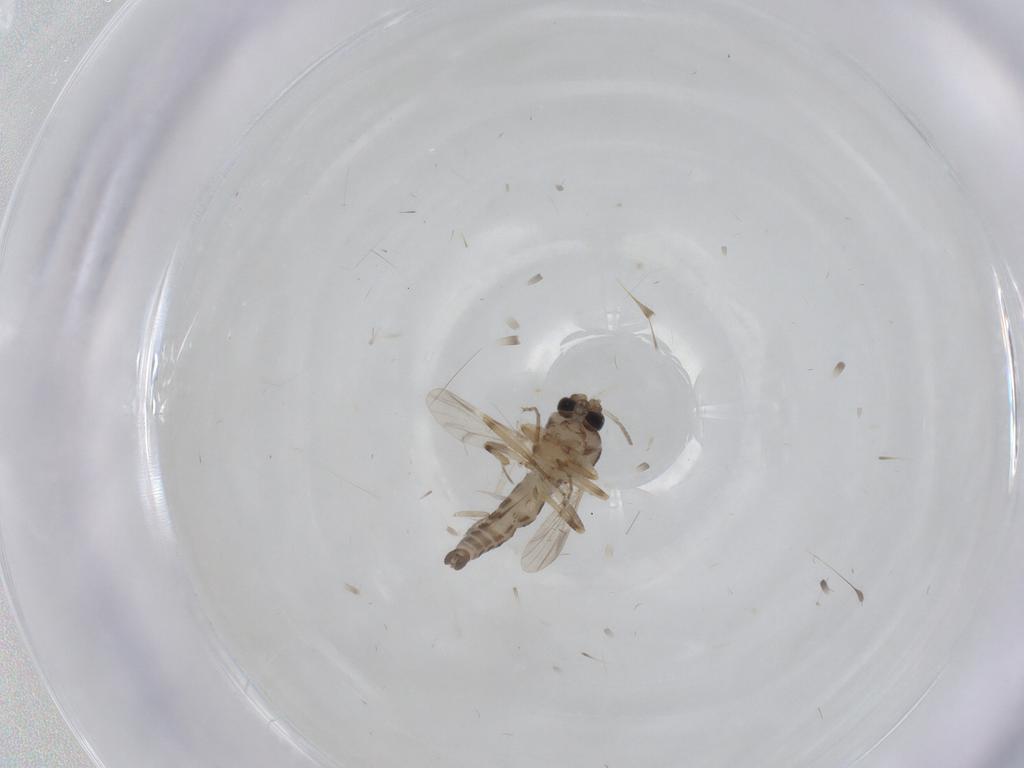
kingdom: Animalia
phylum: Arthropoda
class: Insecta
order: Diptera
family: Ceratopogonidae
